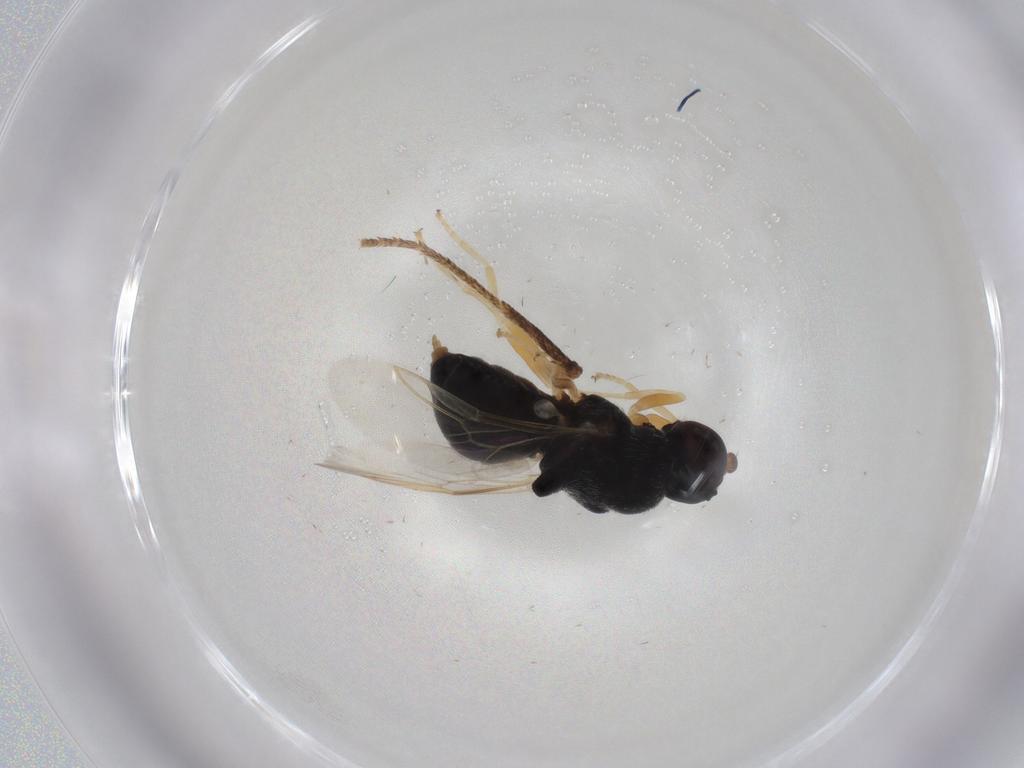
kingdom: Animalia
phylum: Arthropoda
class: Insecta
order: Diptera
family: Stratiomyidae
